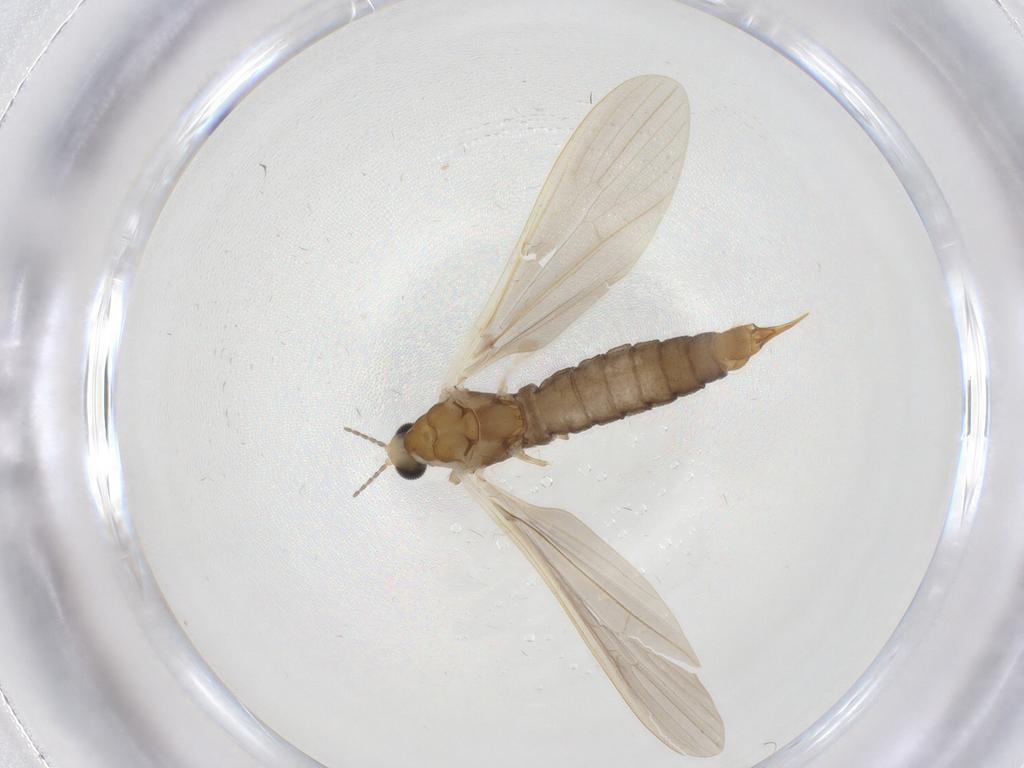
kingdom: Animalia
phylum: Arthropoda
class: Insecta
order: Diptera
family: Limoniidae
